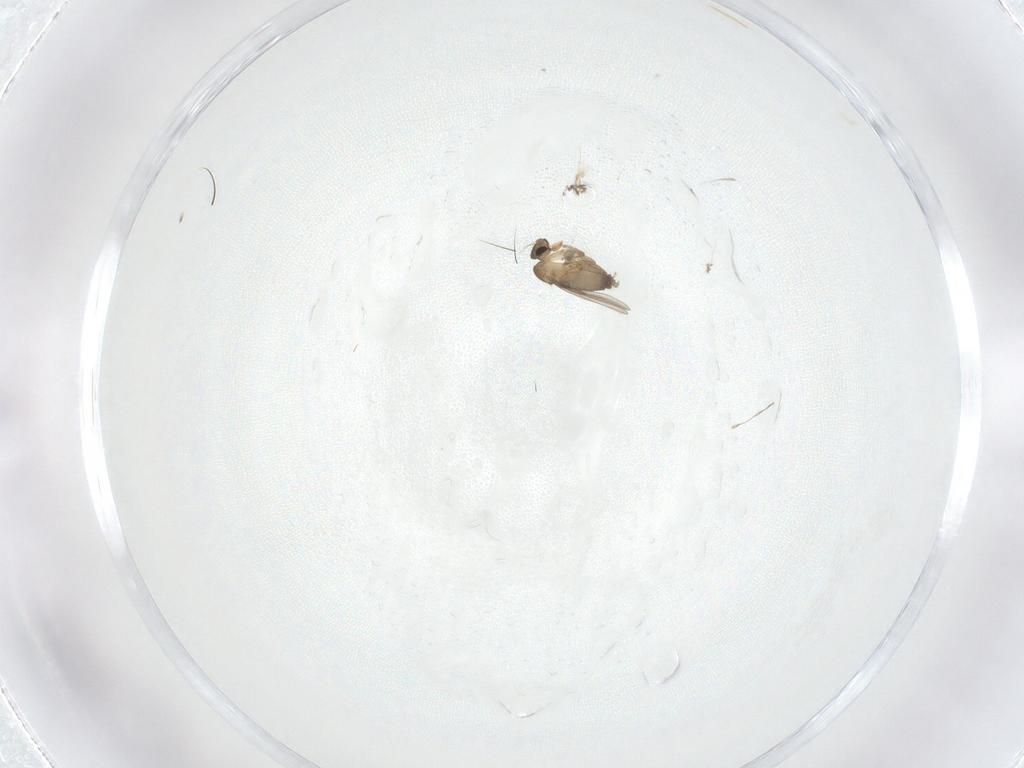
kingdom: Animalia
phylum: Arthropoda
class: Insecta
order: Diptera
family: Phoridae
